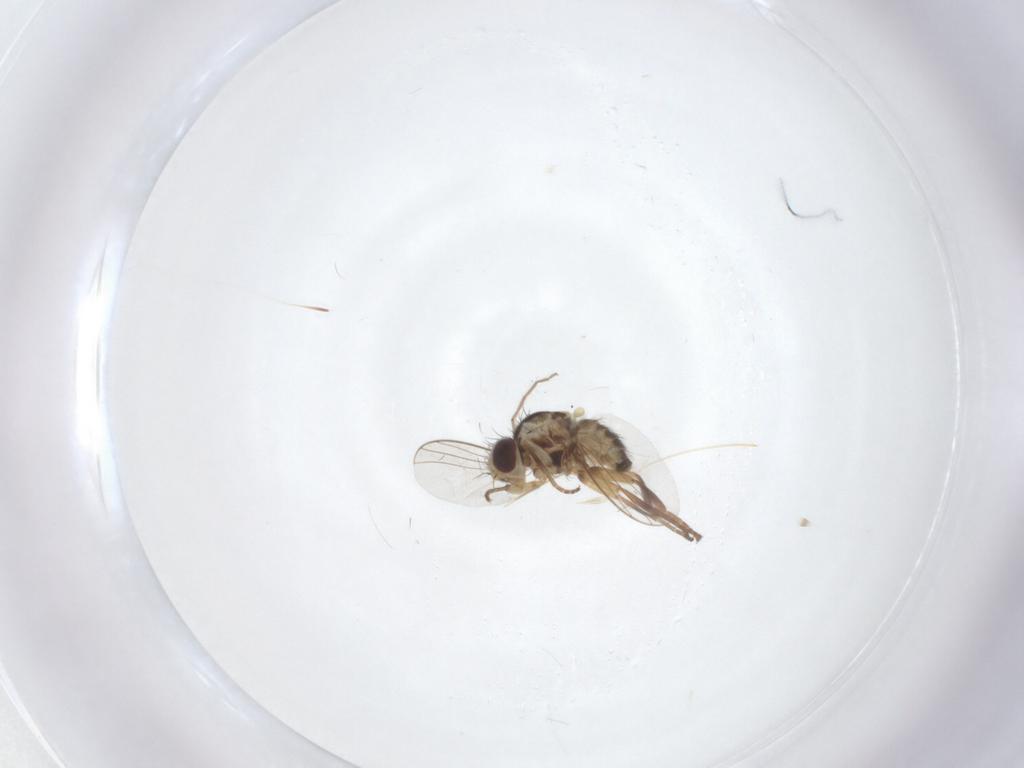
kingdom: Animalia
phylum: Arthropoda
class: Insecta
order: Diptera
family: Agromyzidae
